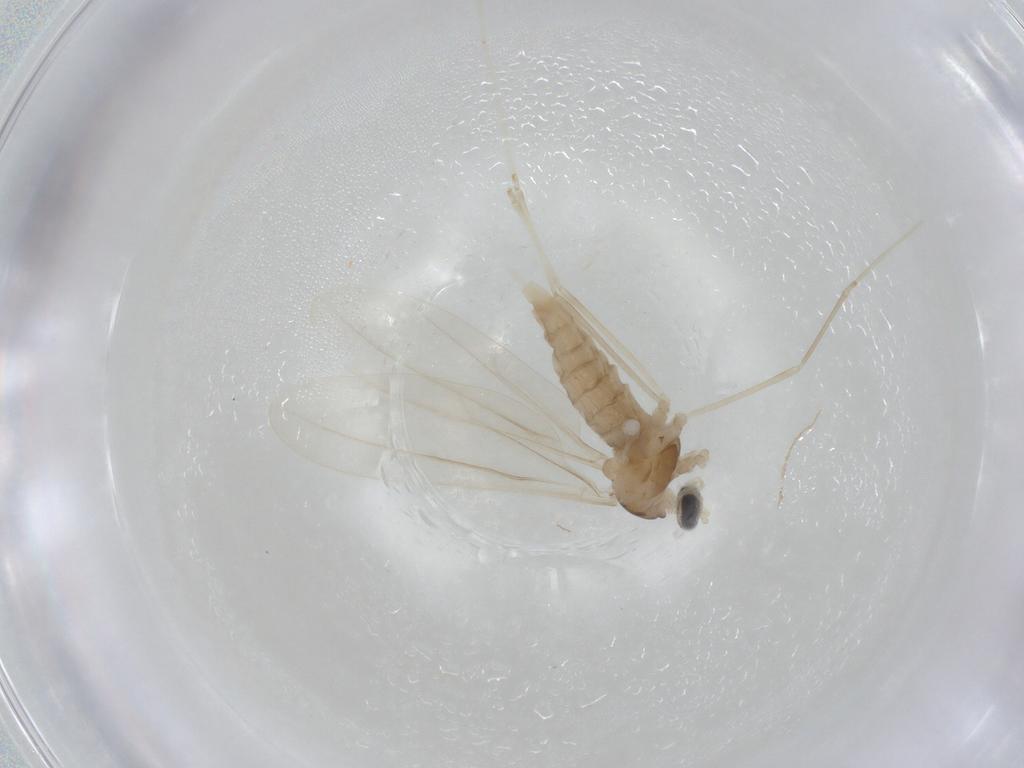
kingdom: Animalia
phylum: Arthropoda
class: Insecta
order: Diptera
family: Cecidomyiidae
